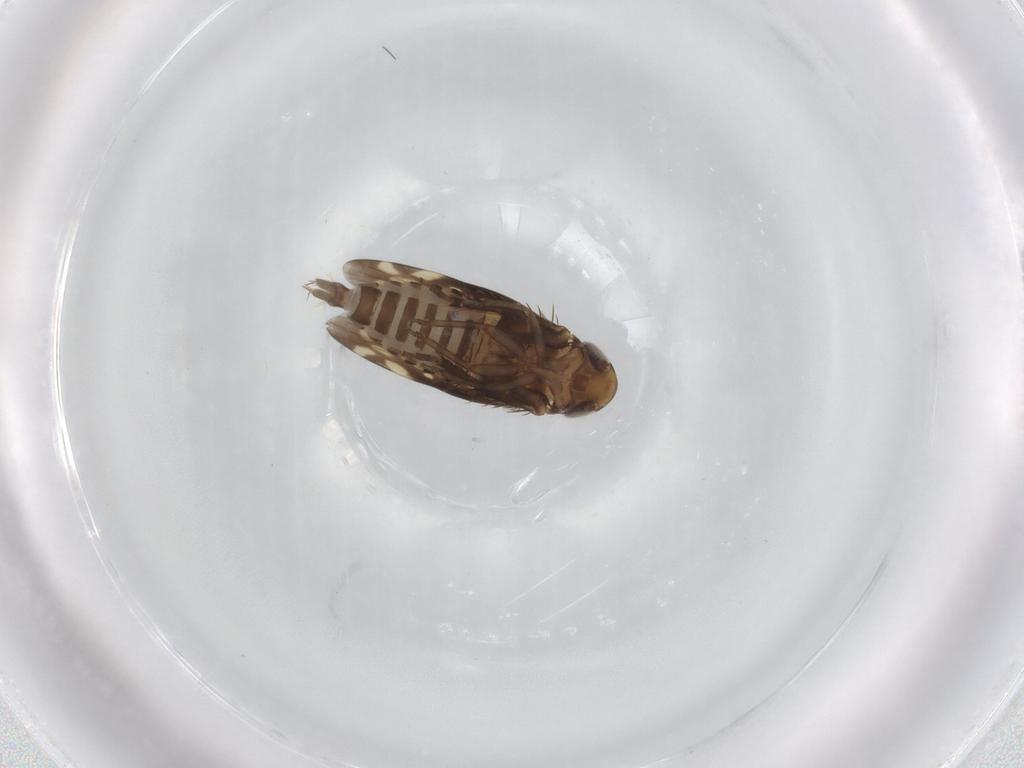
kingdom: Animalia
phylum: Arthropoda
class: Insecta
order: Hemiptera
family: Cicadellidae
